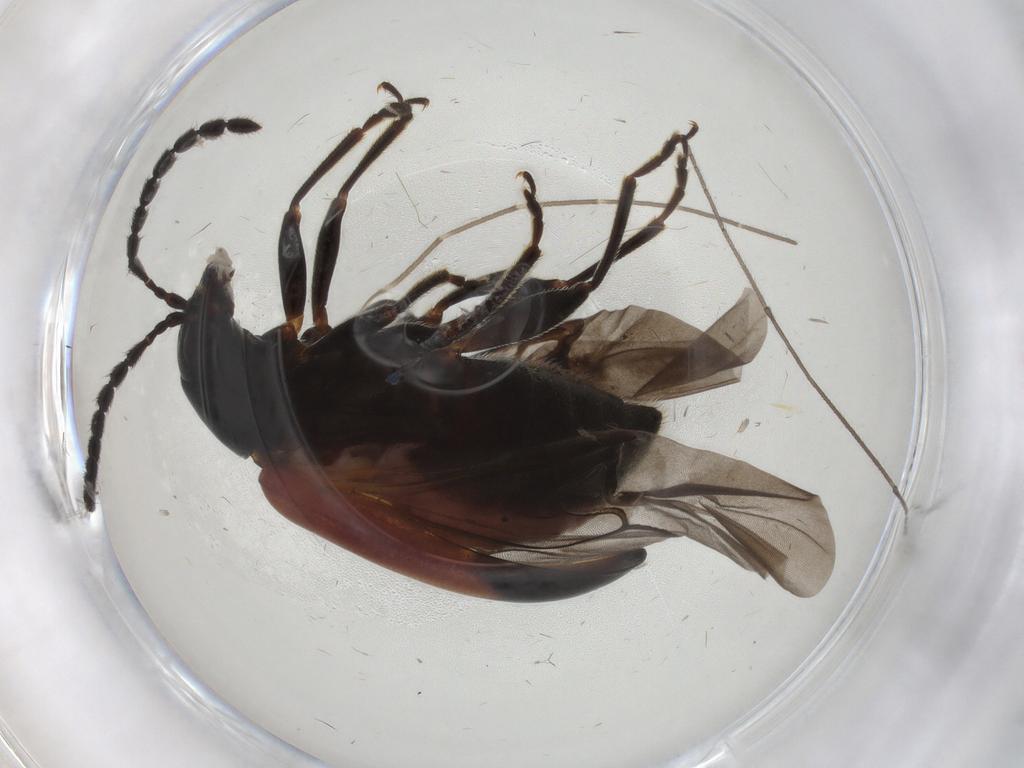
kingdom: Animalia
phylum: Arthropoda
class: Insecta
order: Coleoptera
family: Chrysomelidae
